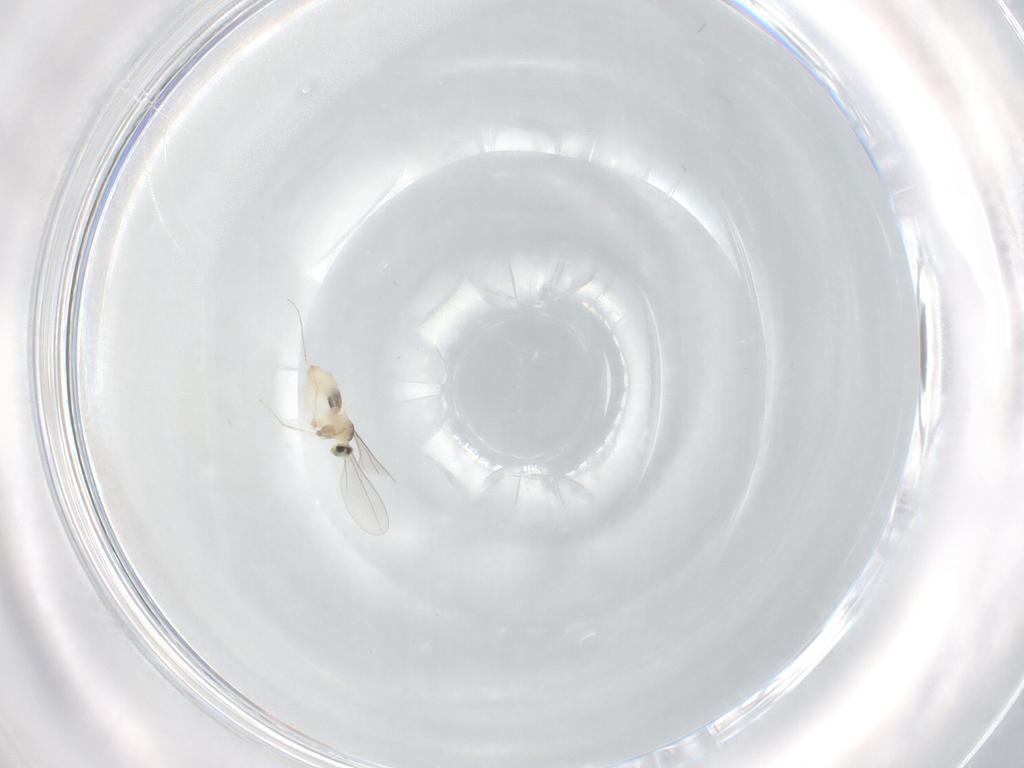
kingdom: Animalia
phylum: Arthropoda
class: Insecta
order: Diptera
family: Cecidomyiidae
